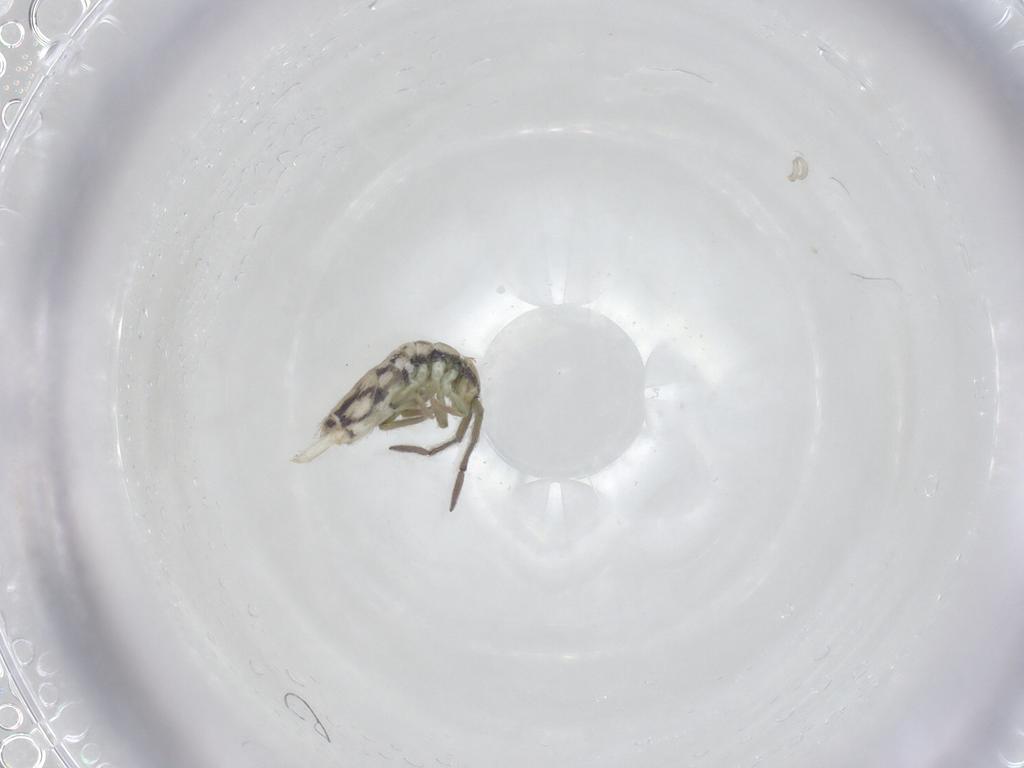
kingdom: Animalia
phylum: Arthropoda
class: Collembola
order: Entomobryomorpha
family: Entomobryidae
